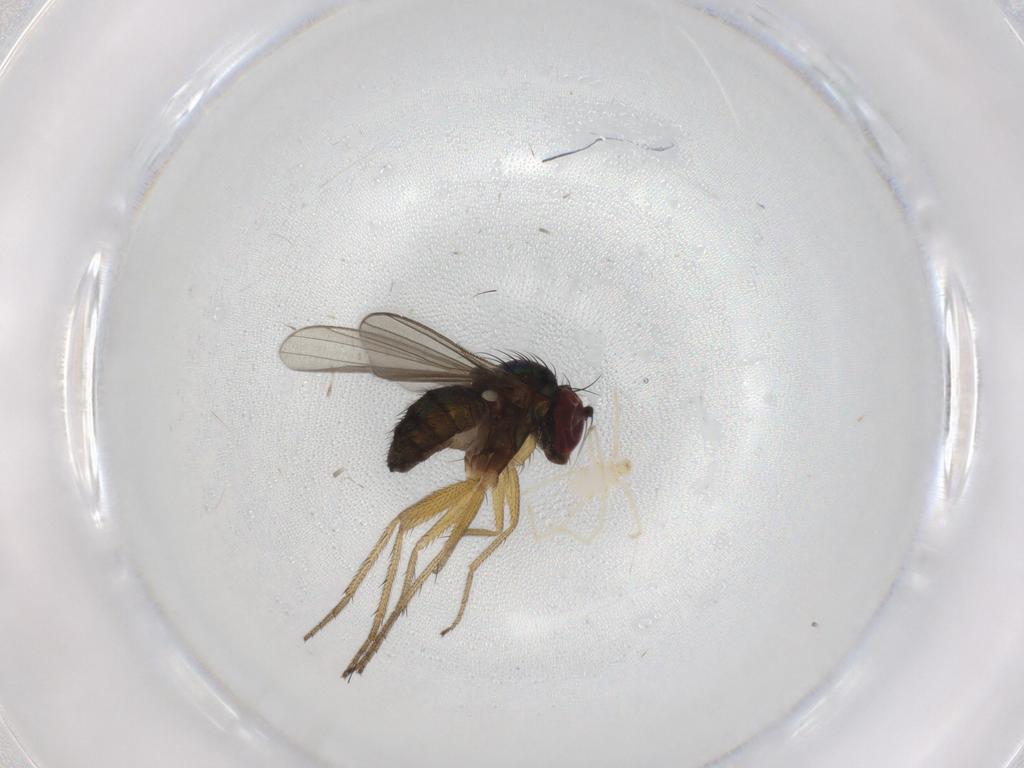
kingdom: Animalia
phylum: Arthropoda
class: Insecta
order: Diptera
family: Dolichopodidae
